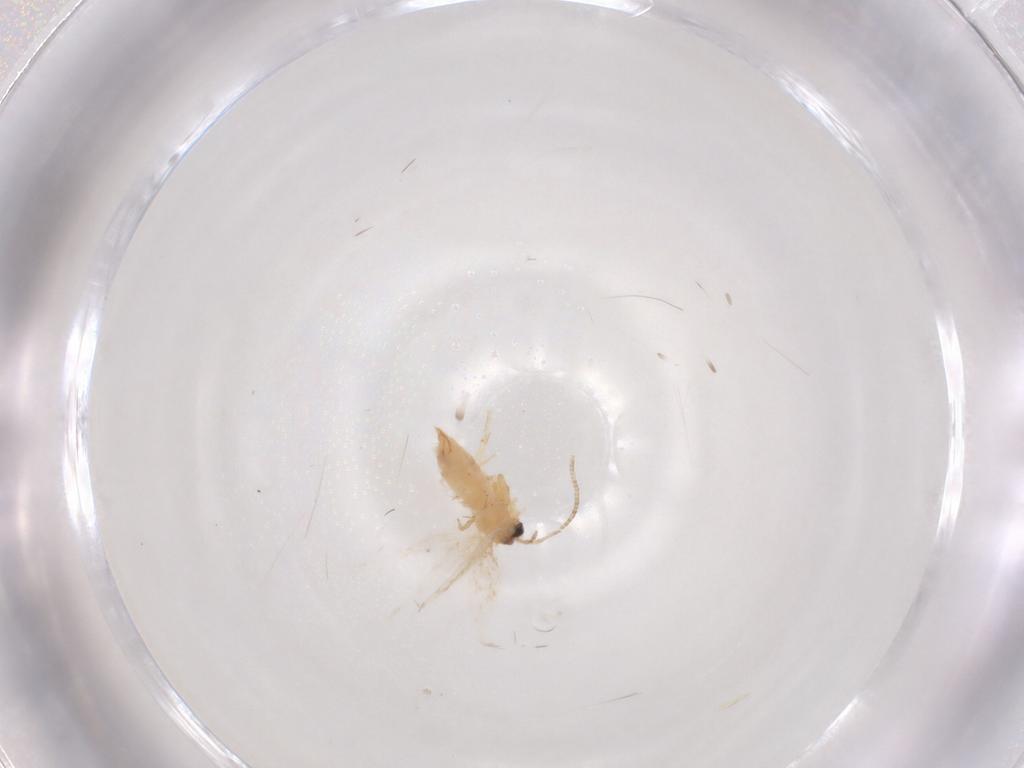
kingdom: Animalia
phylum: Arthropoda
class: Insecta
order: Lepidoptera
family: Nepticulidae
